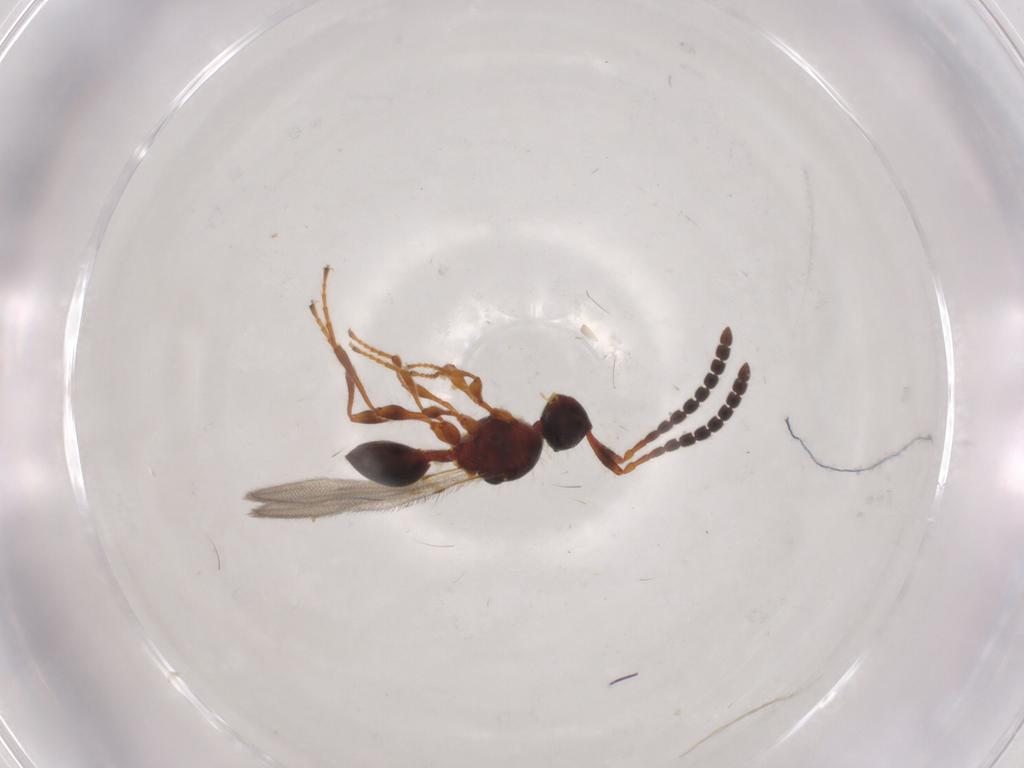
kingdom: Animalia
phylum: Arthropoda
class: Insecta
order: Hymenoptera
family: Diapriidae
